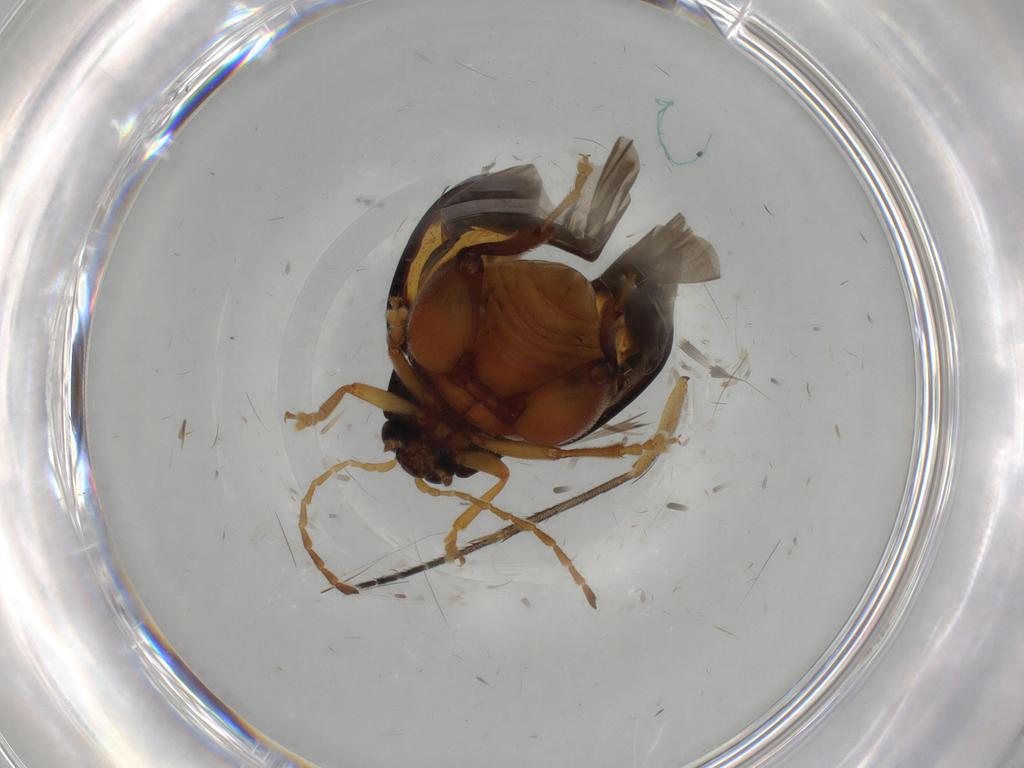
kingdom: Animalia
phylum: Arthropoda
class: Insecta
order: Coleoptera
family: Chrysomelidae
